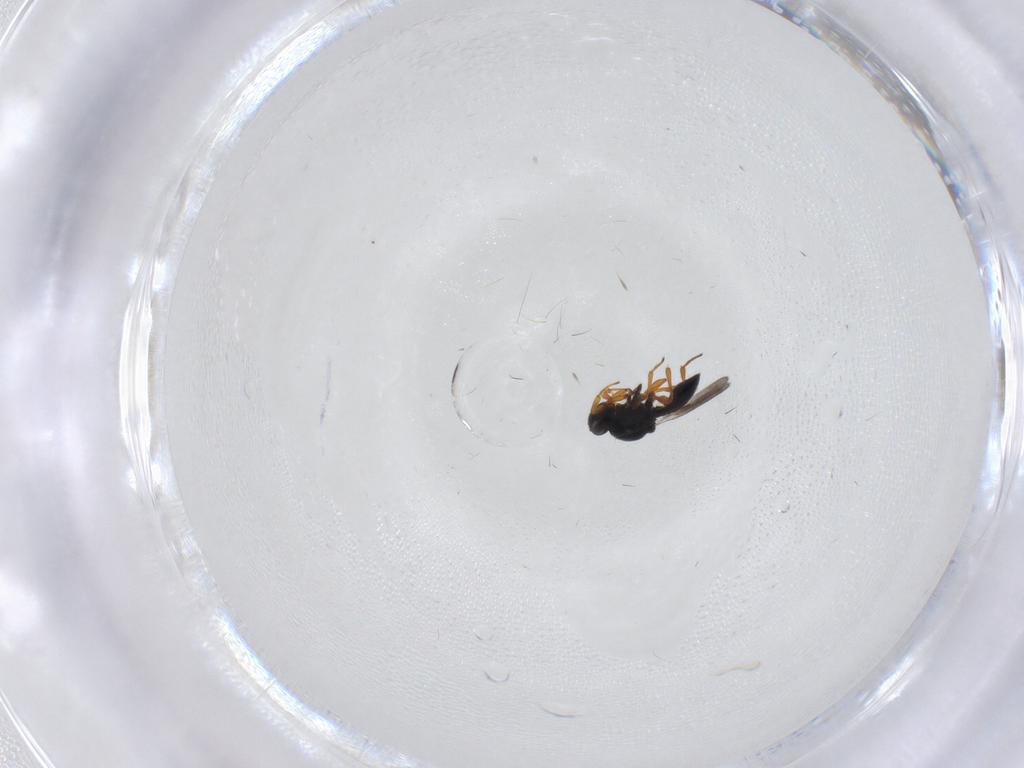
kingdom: Animalia
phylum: Arthropoda
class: Insecta
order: Hymenoptera
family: Platygastridae
